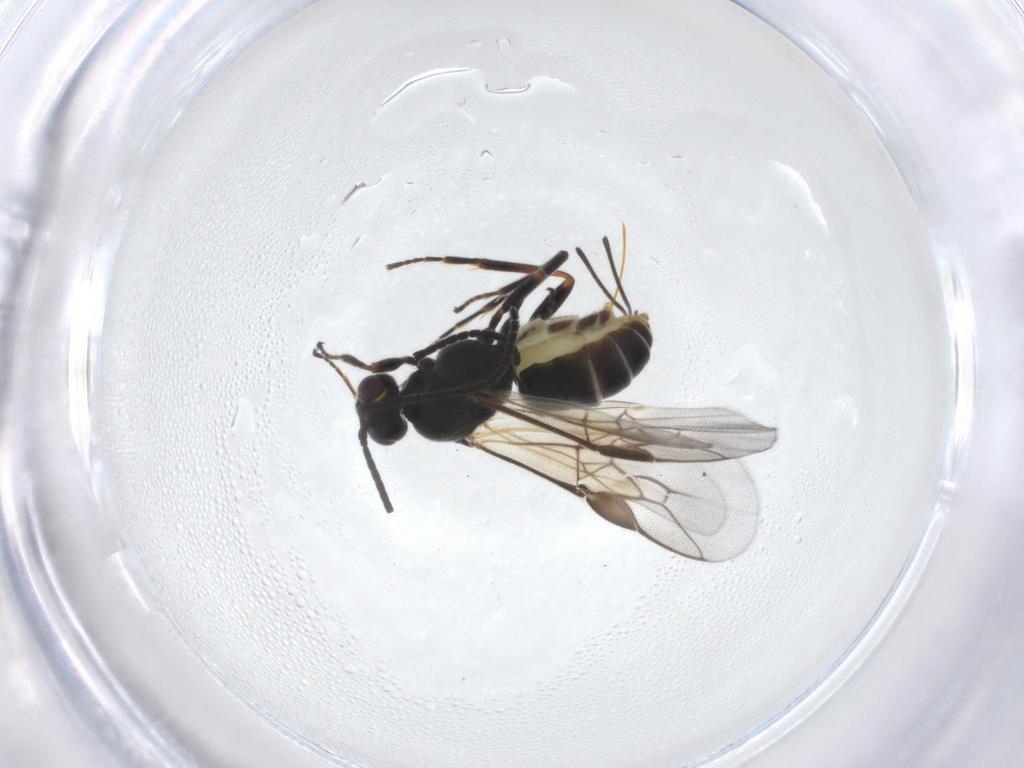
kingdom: Animalia
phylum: Arthropoda
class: Insecta
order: Hymenoptera
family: Braconidae
